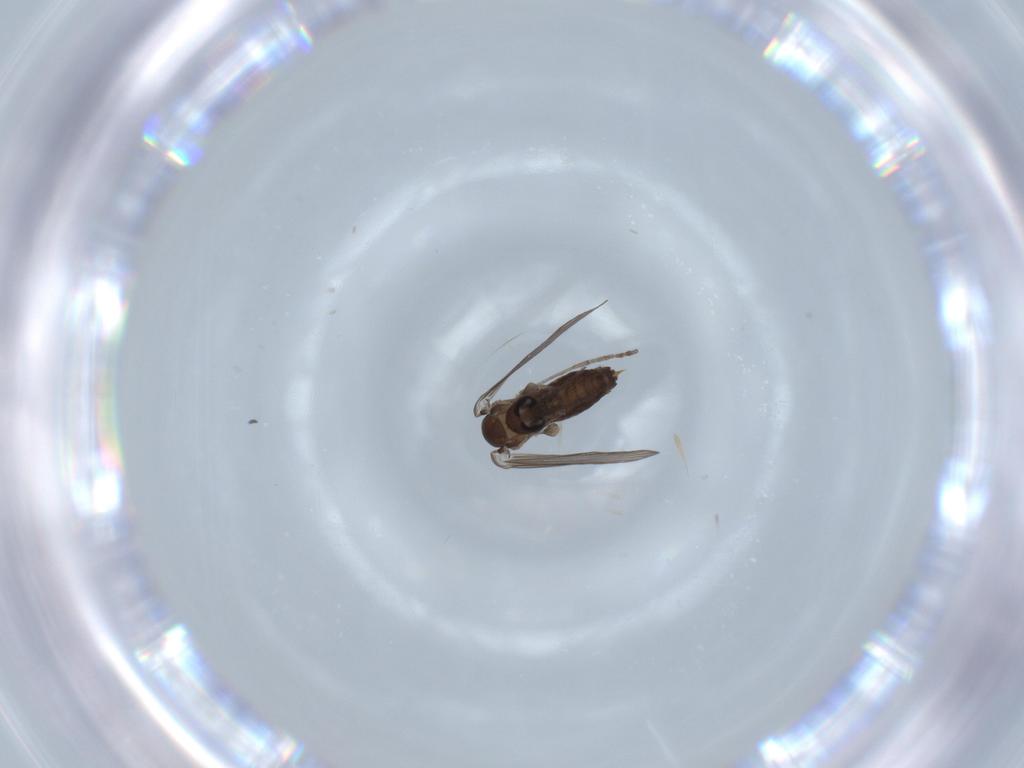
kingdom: Animalia
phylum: Arthropoda
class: Insecta
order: Diptera
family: Psychodidae
